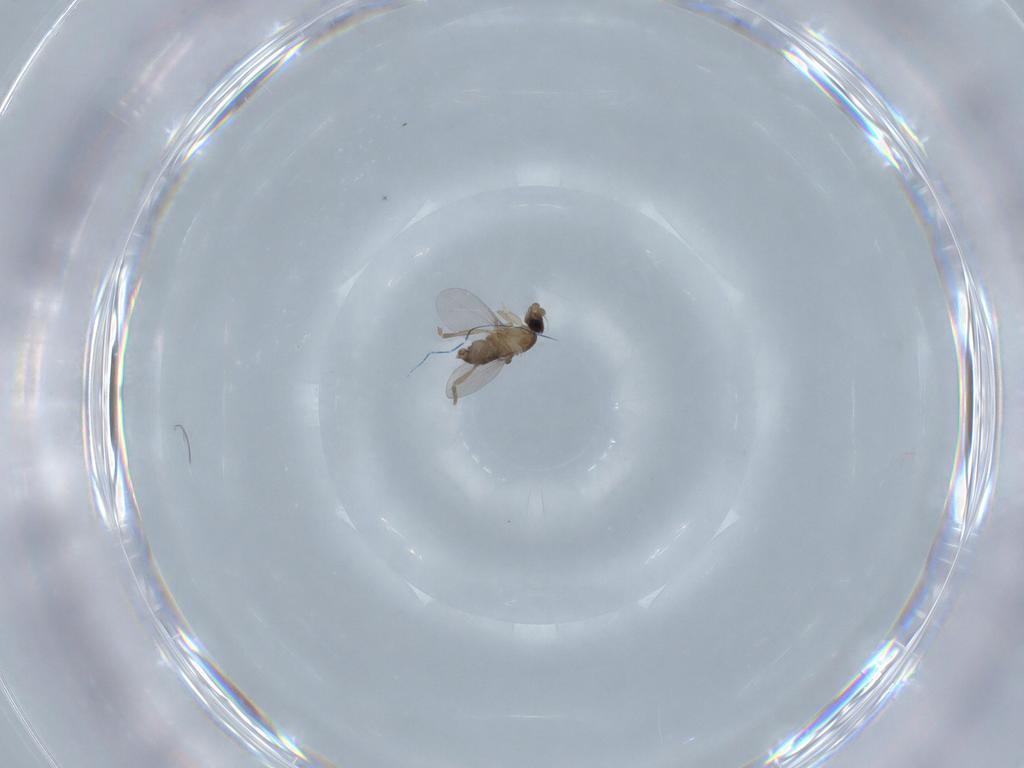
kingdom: Animalia
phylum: Arthropoda
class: Insecta
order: Diptera
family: Phoridae
